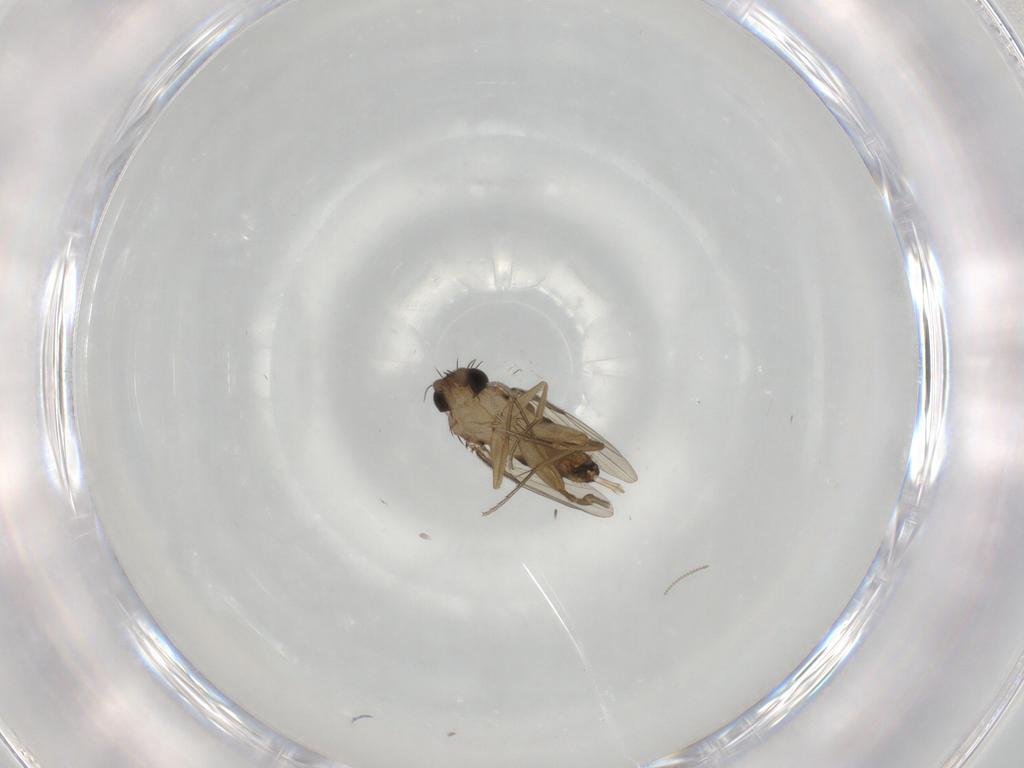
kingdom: Animalia
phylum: Arthropoda
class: Insecta
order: Diptera
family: Phoridae
